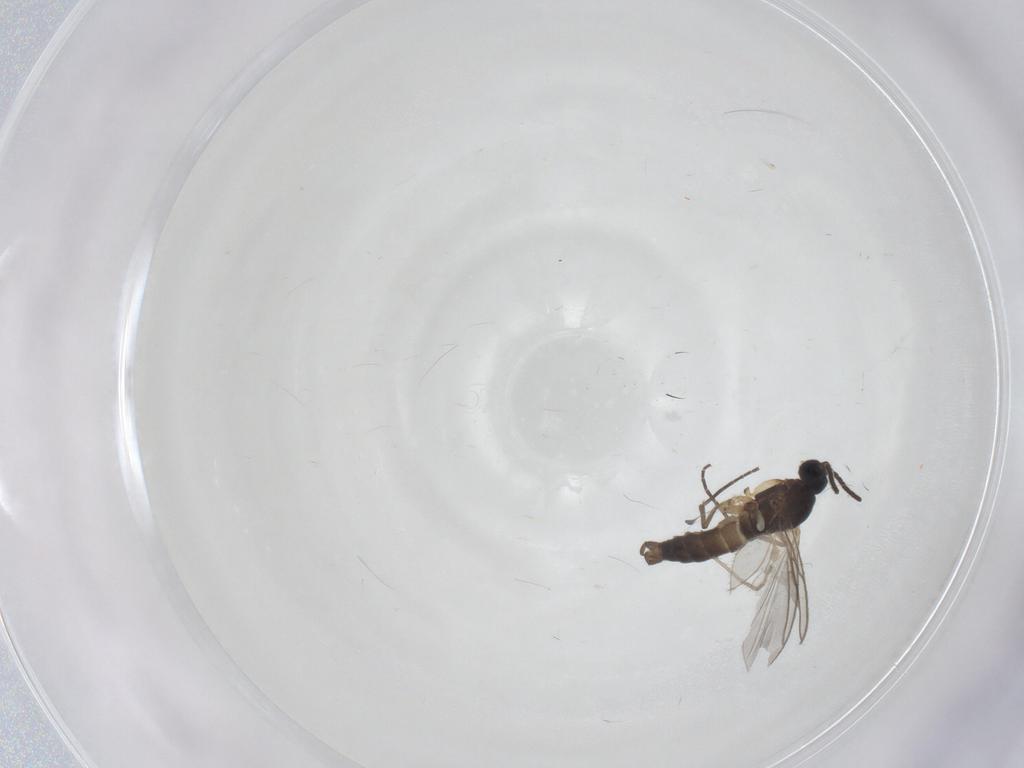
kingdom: Animalia
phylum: Arthropoda
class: Insecta
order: Diptera
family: Sciaridae
